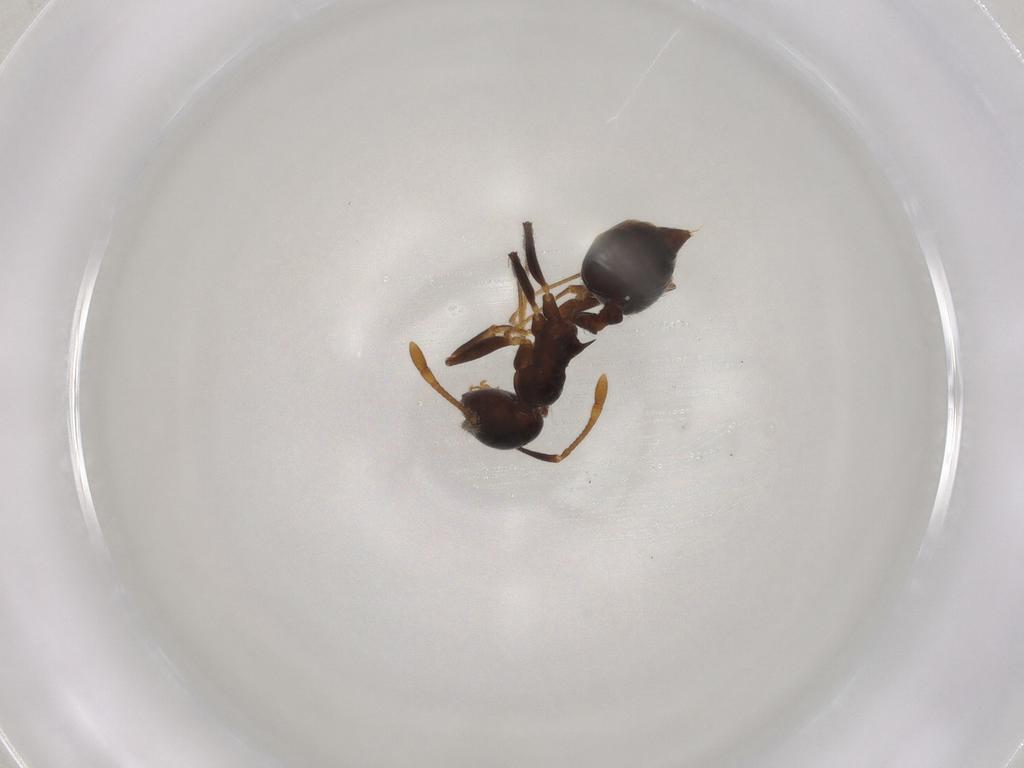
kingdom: Animalia
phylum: Arthropoda
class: Insecta
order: Hymenoptera
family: Formicidae
